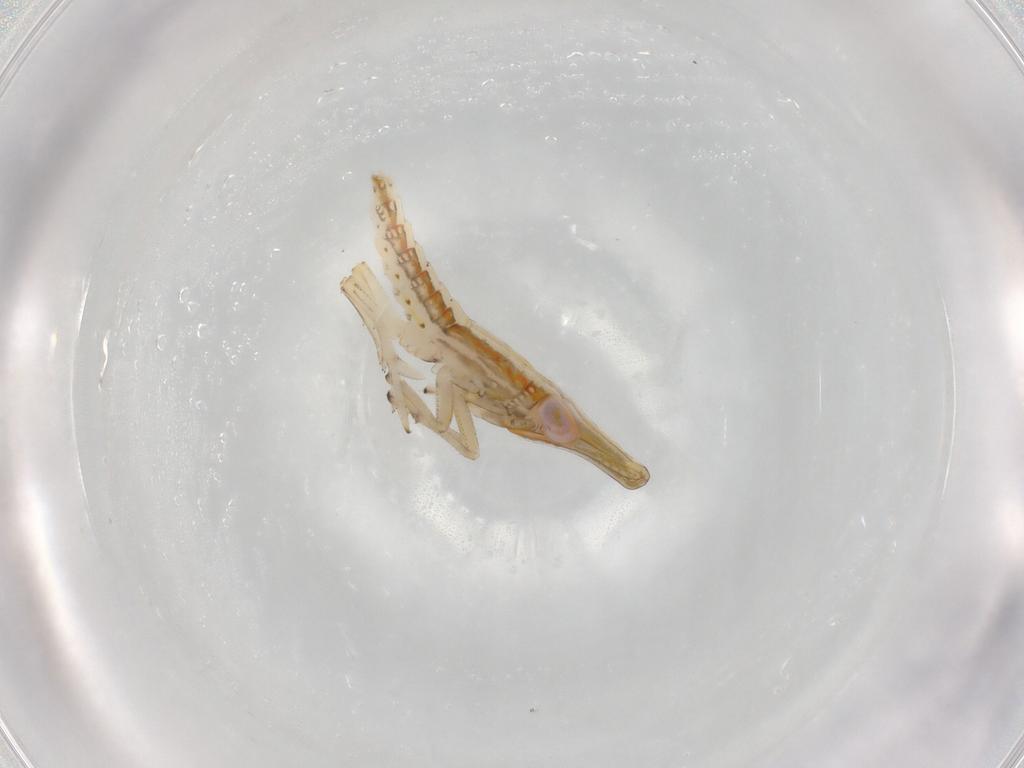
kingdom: Animalia
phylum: Arthropoda
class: Insecta
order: Hemiptera
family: Delphacidae
